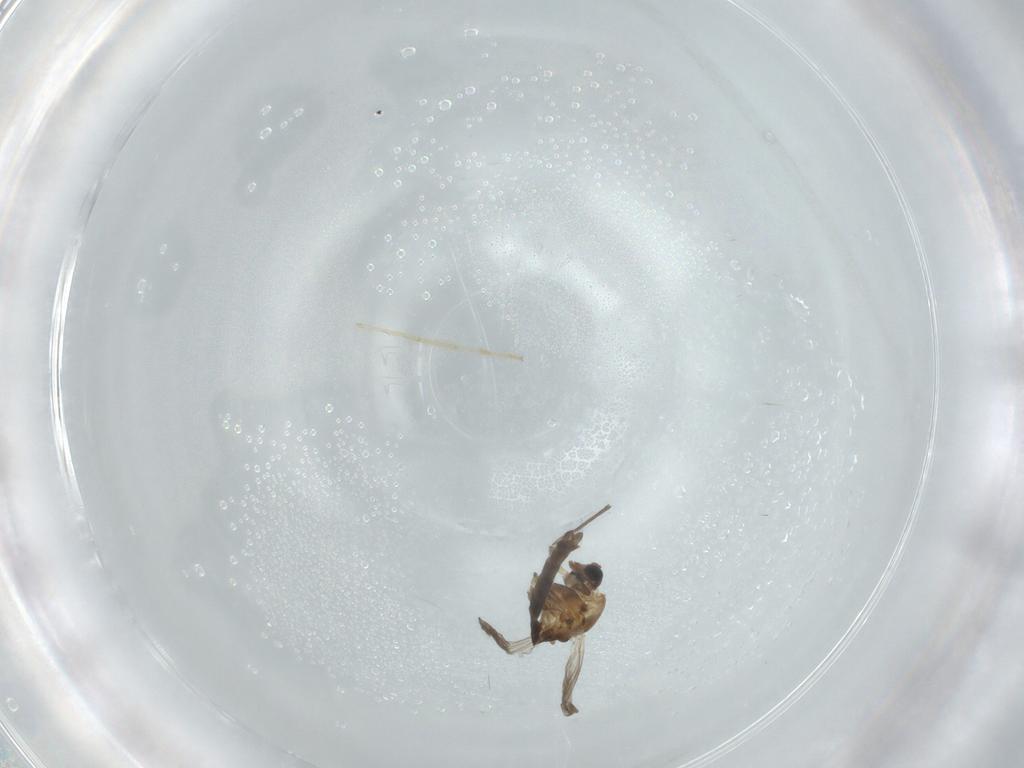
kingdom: Animalia
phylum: Arthropoda
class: Insecta
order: Diptera
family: Chironomidae
